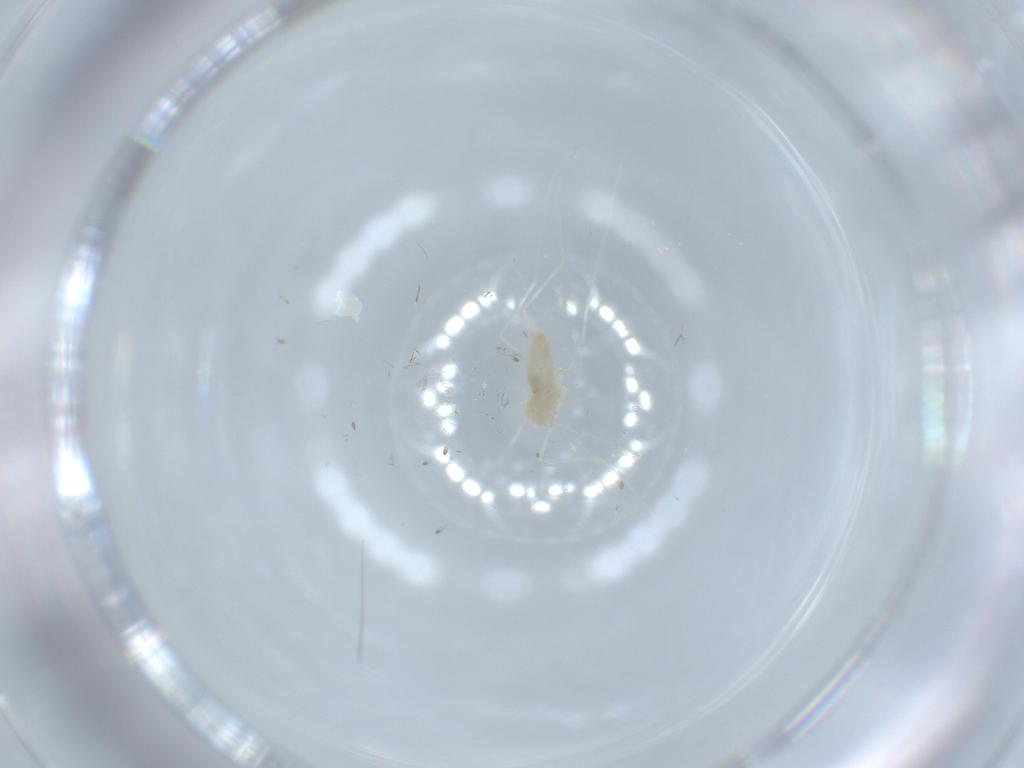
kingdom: Animalia
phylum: Arthropoda
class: Insecta
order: Diptera
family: Cecidomyiidae
